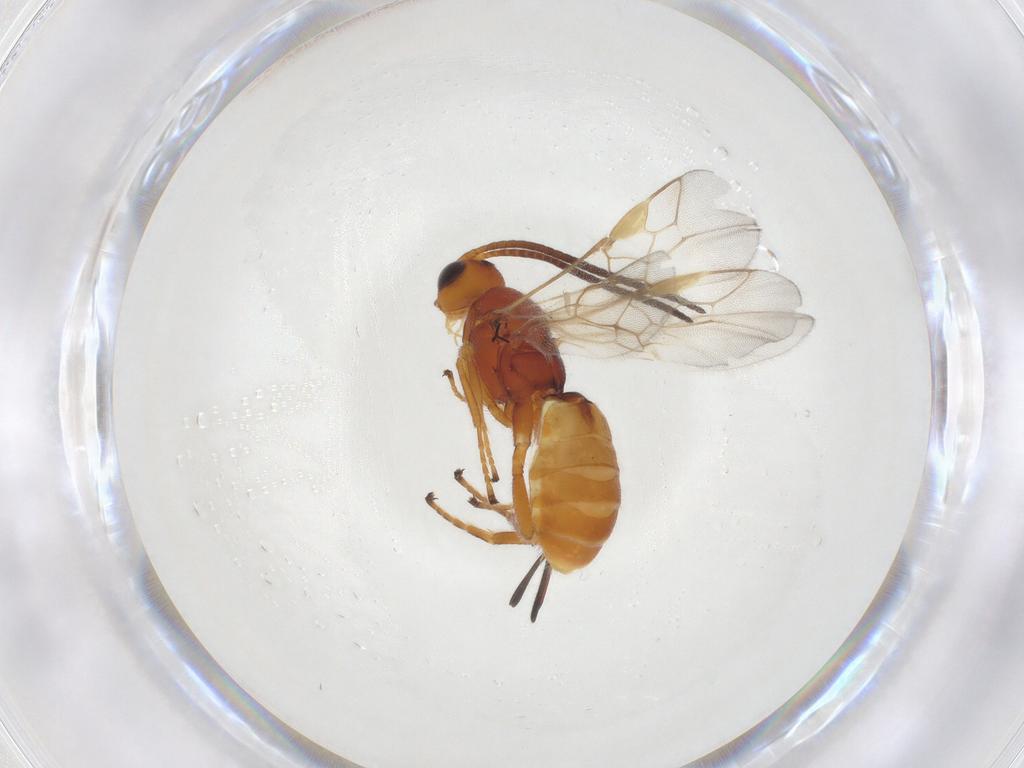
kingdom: Animalia
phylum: Arthropoda
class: Insecta
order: Hymenoptera
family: Braconidae
